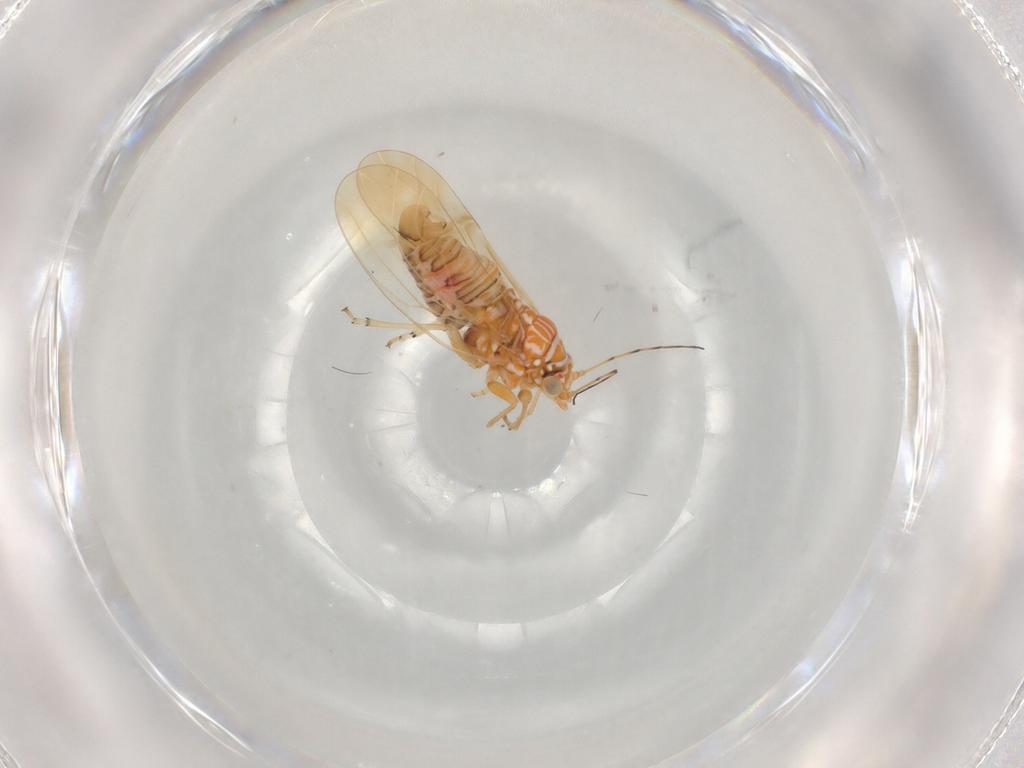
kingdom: Animalia
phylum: Arthropoda
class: Insecta
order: Hemiptera
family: Psyllidae
